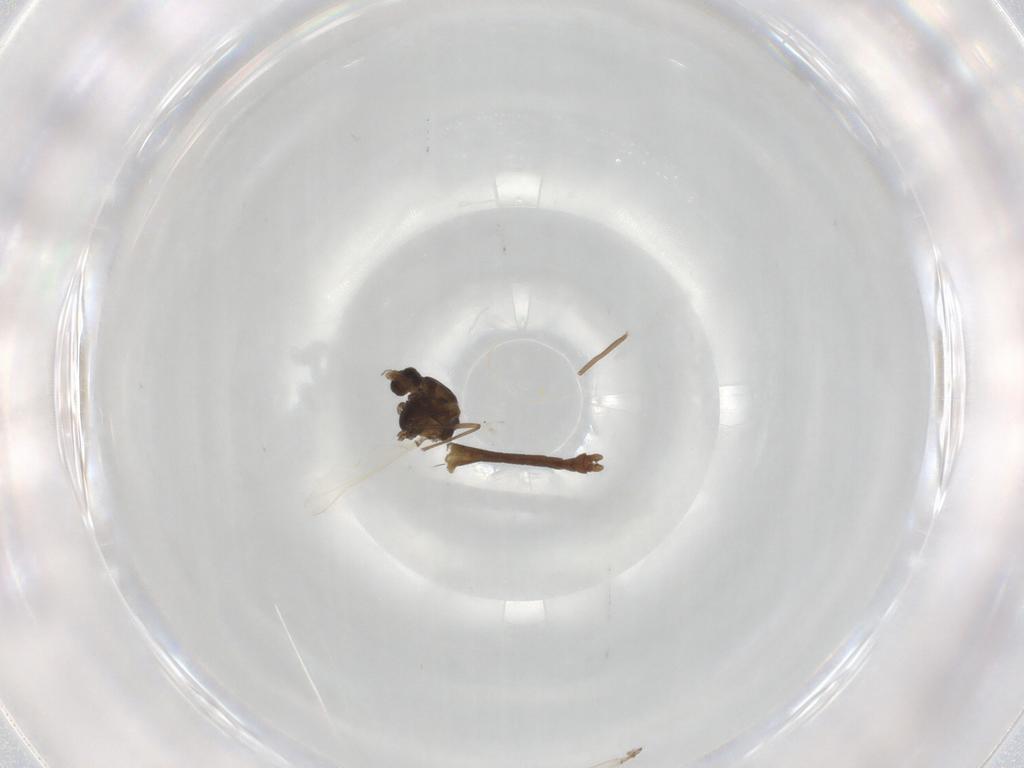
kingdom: Animalia
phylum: Arthropoda
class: Insecta
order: Diptera
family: Chironomidae
